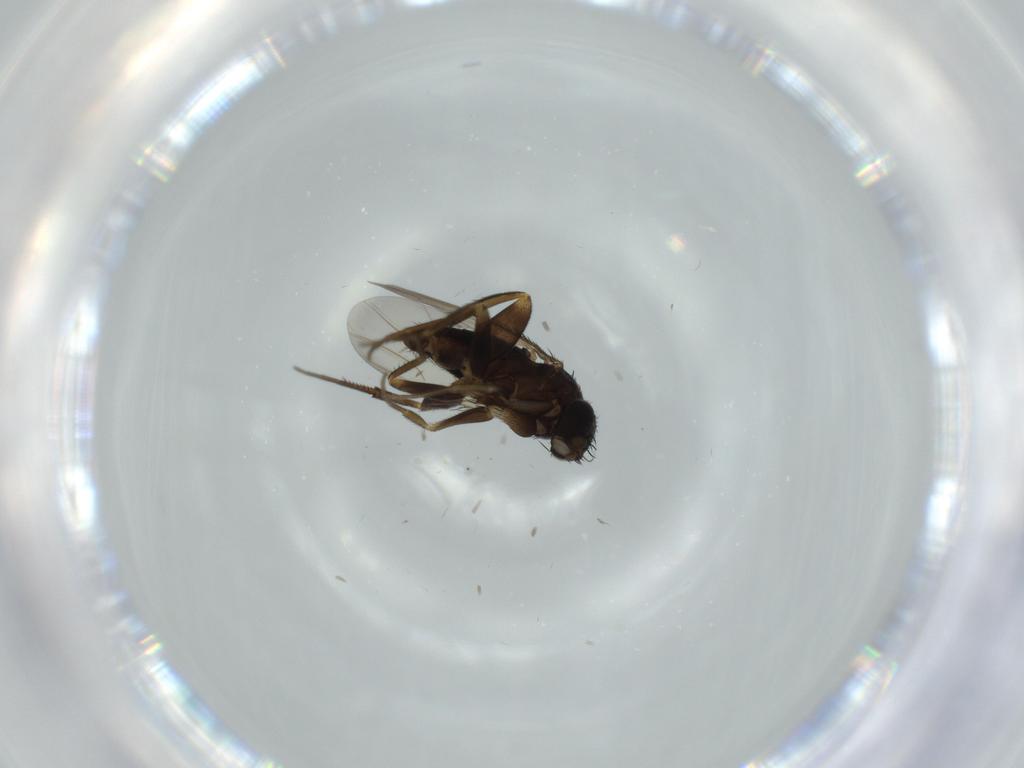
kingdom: Animalia
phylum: Arthropoda
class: Insecta
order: Diptera
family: Phoridae
